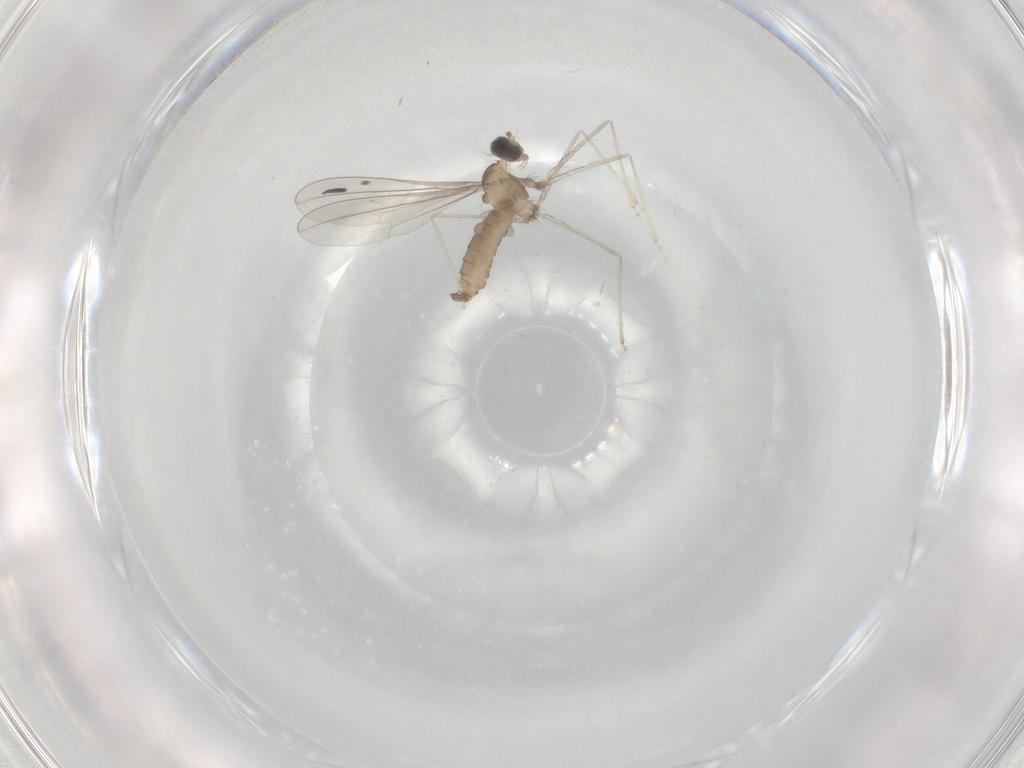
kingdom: Animalia
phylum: Arthropoda
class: Insecta
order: Diptera
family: Cecidomyiidae
